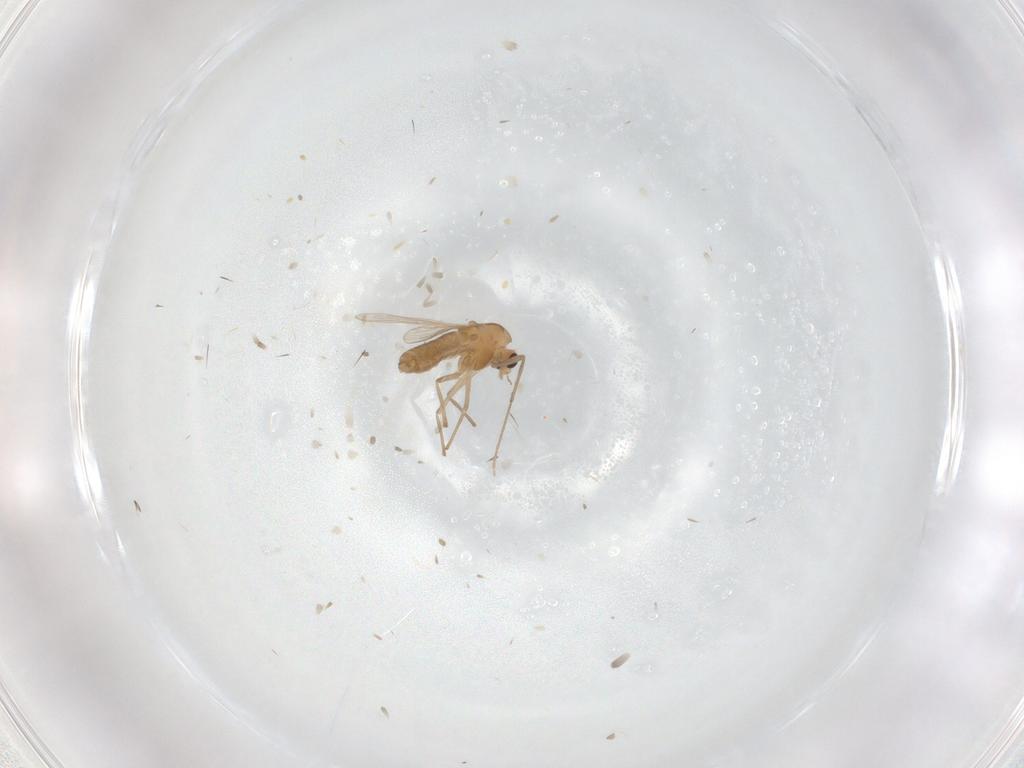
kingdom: Animalia
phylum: Arthropoda
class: Insecta
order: Diptera
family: Chironomidae
